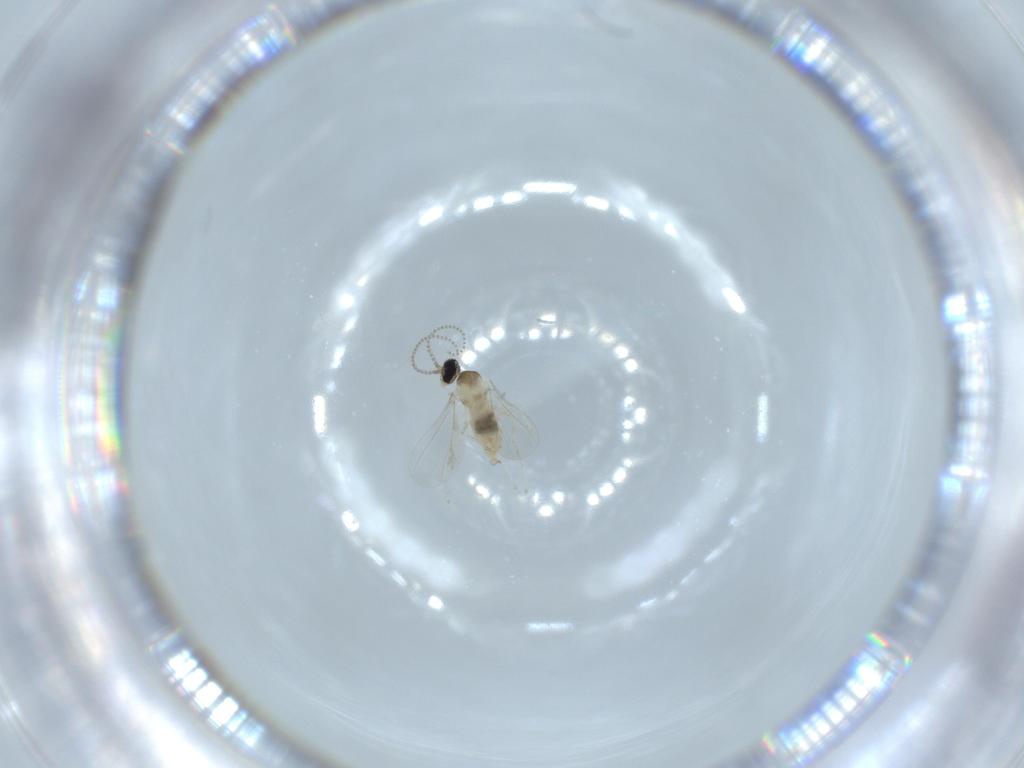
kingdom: Animalia
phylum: Arthropoda
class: Insecta
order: Diptera
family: Cecidomyiidae
